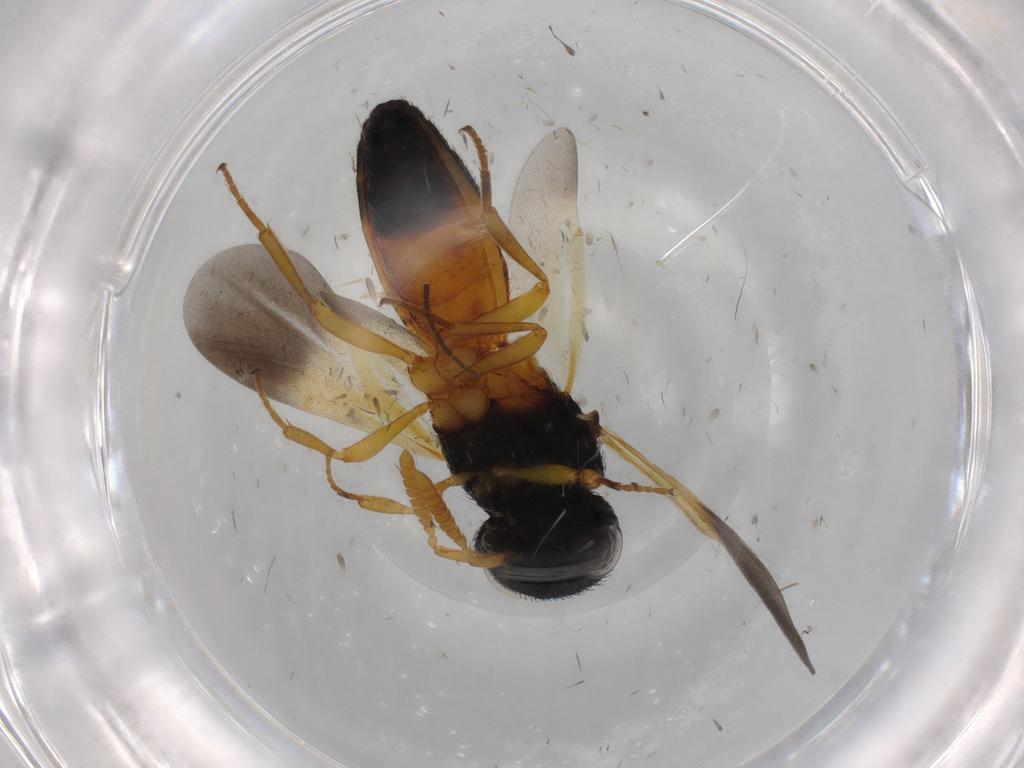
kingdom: Animalia
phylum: Arthropoda
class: Insecta
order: Hymenoptera
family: Scelionidae
